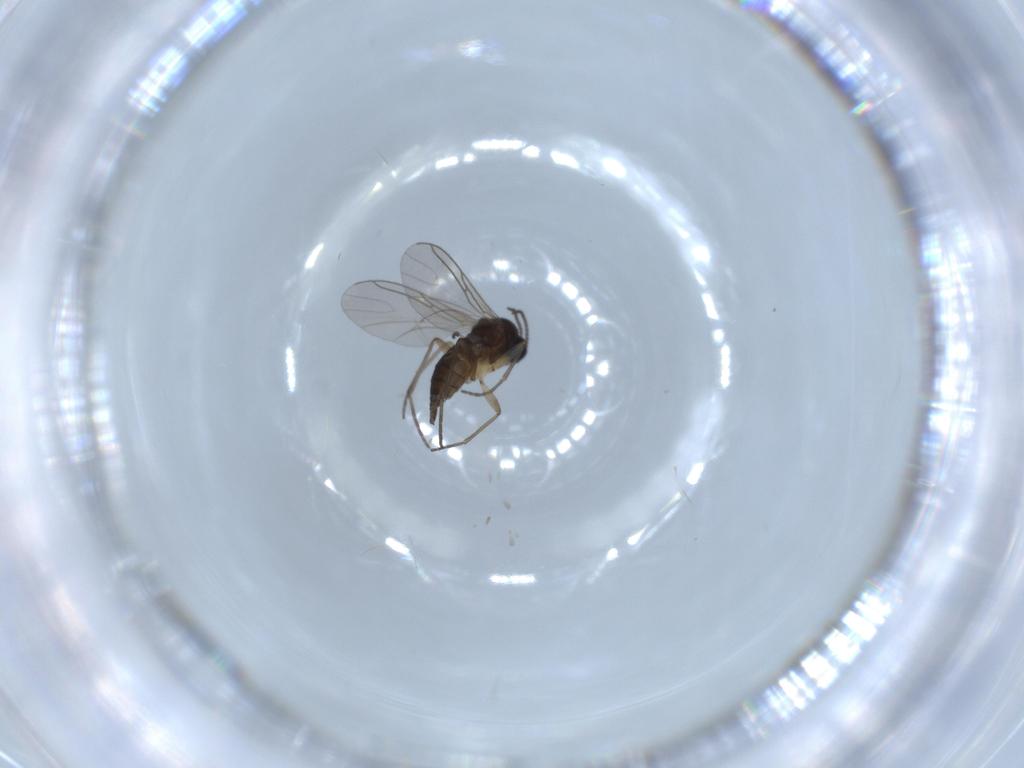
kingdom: Animalia
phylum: Arthropoda
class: Insecta
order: Diptera
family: Sciaridae
